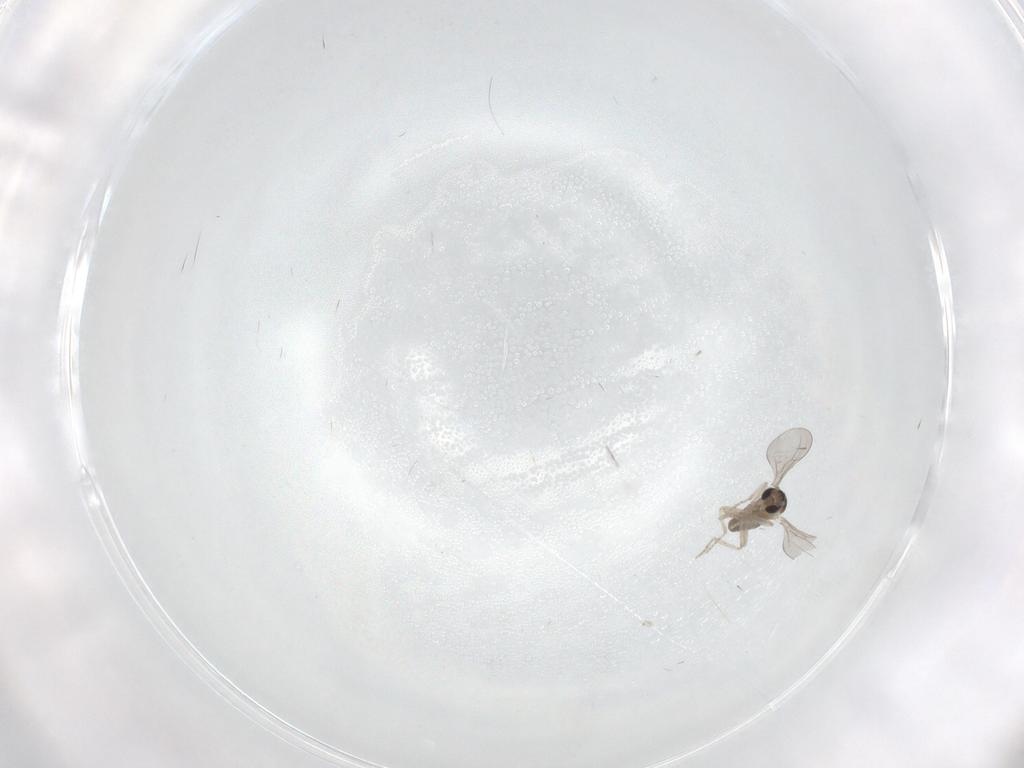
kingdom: Animalia
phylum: Arthropoda
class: Insecta
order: Diptera
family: Cecidomyiidae
